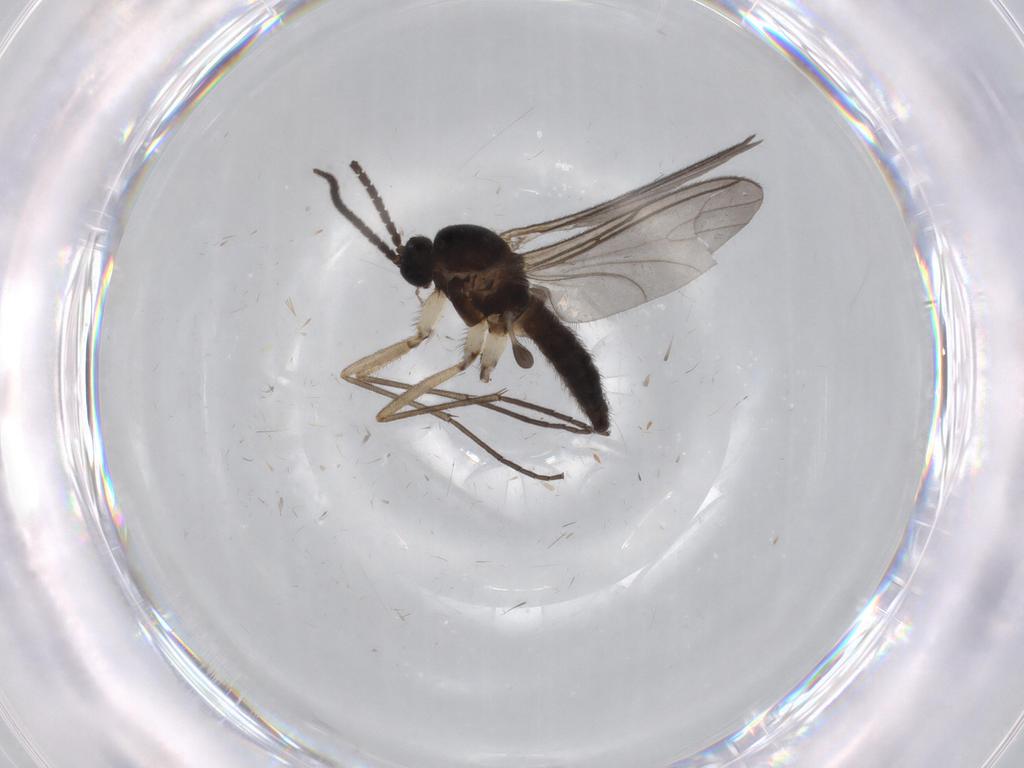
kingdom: Animalia
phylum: Arthropoda
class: Insecta
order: Diptera
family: Sciaridae
